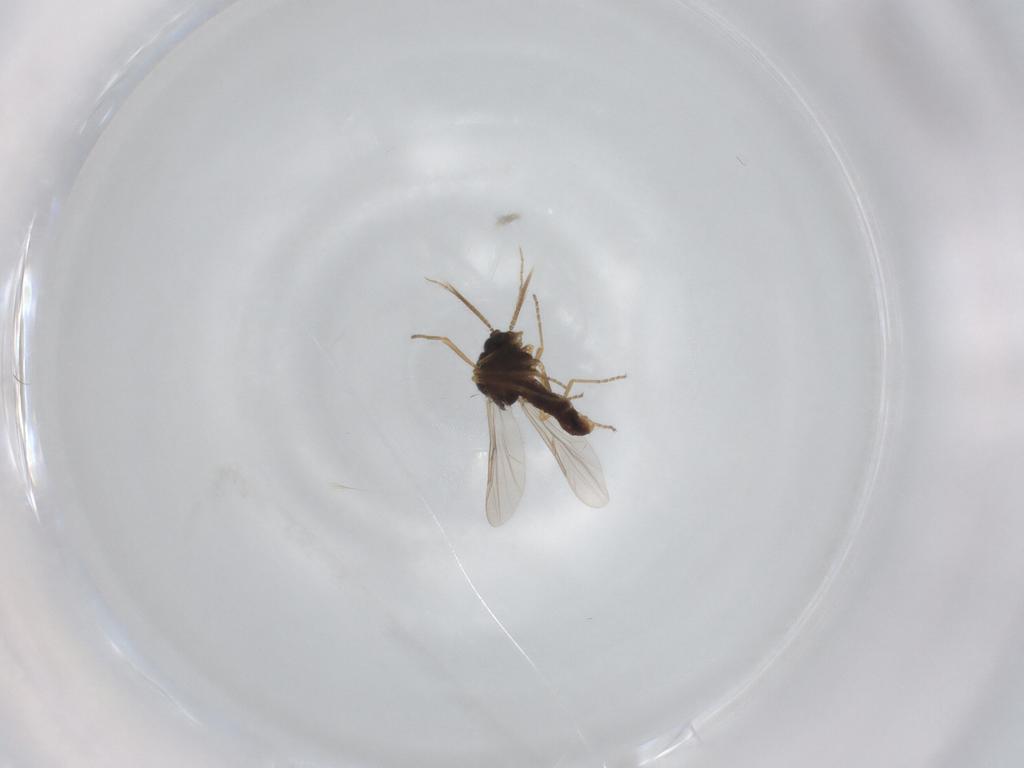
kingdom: Animalia
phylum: Arthropoda
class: Insecta
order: Diptera
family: Ceratopogonidae
